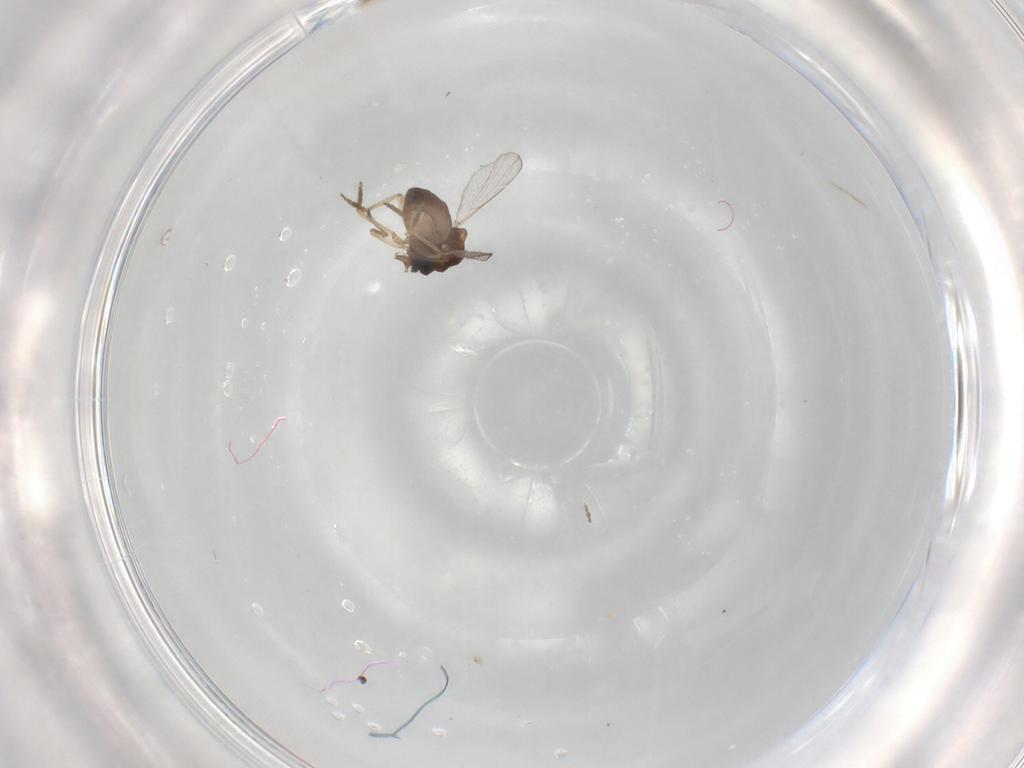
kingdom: Animalia
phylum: Arthropoda
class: Insecta
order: Diptera
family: Ceratopogonidae
